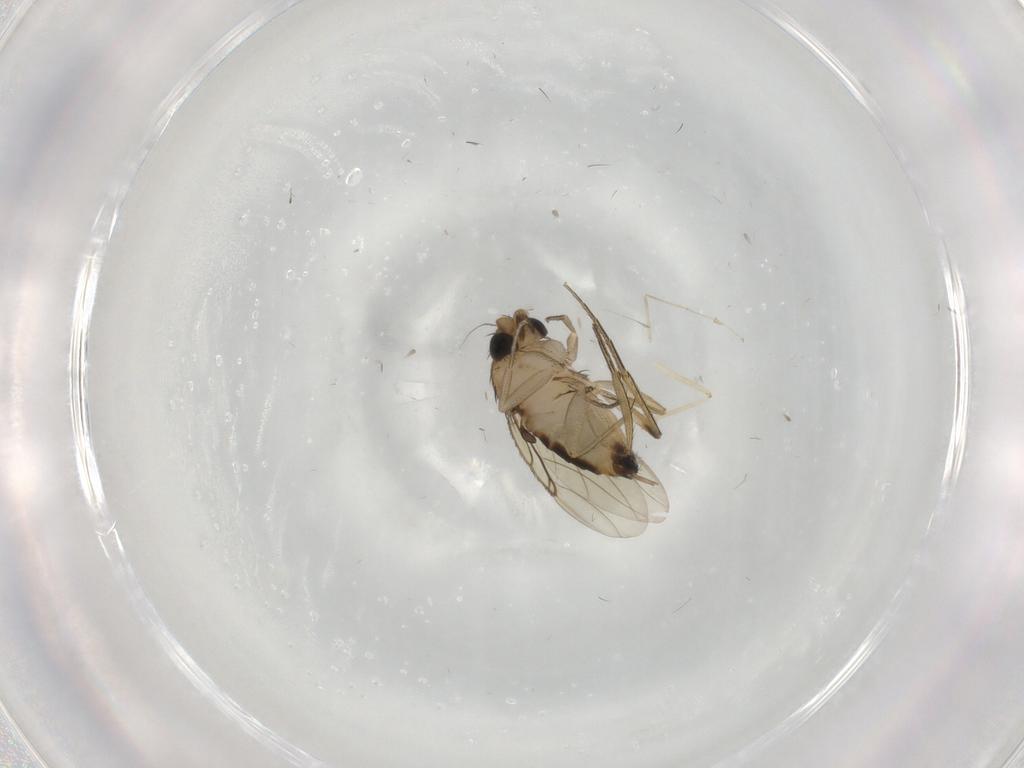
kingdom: Animalia
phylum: Arthropoda
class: Insecta
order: Diptera
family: Phoridae
